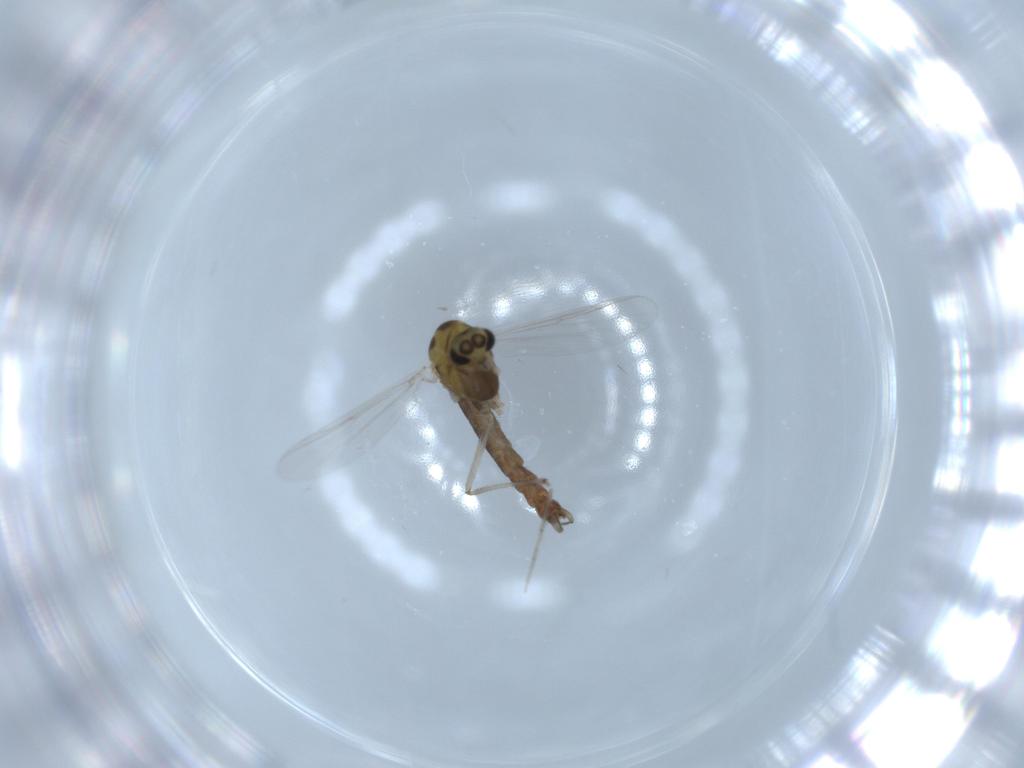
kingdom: Animalia
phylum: Arthropoda
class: Insecta
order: Diptera
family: Chironomidae
